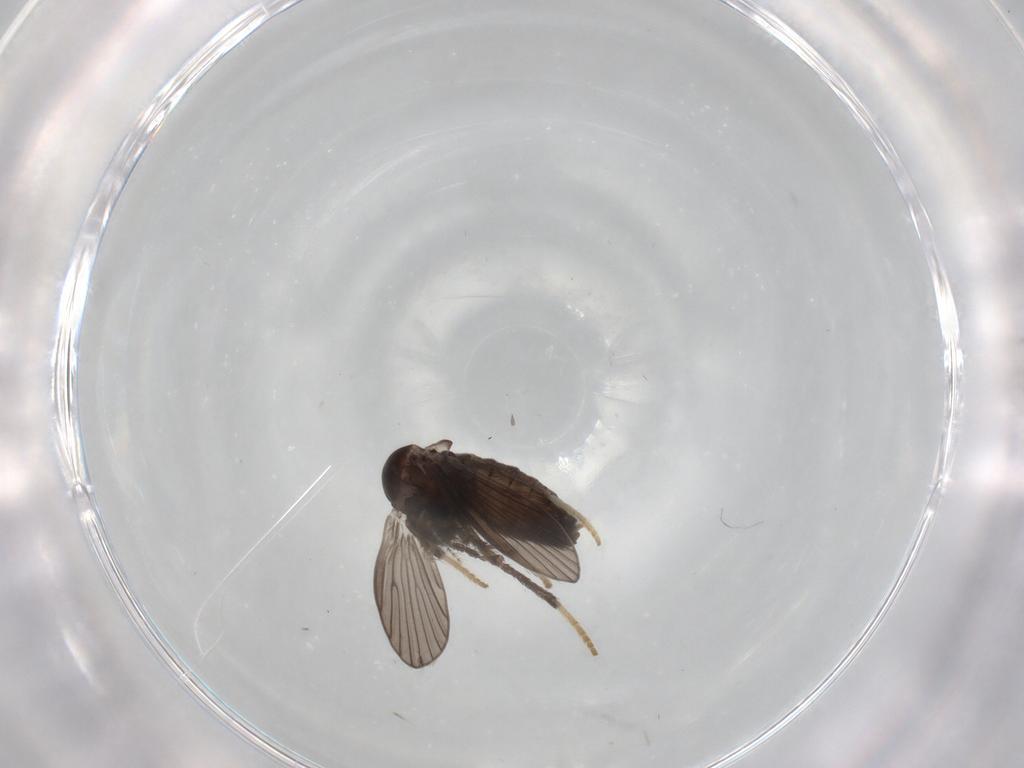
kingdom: Animalia
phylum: Arthropoda
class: Insecta
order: Diptera
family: Psychodidae
